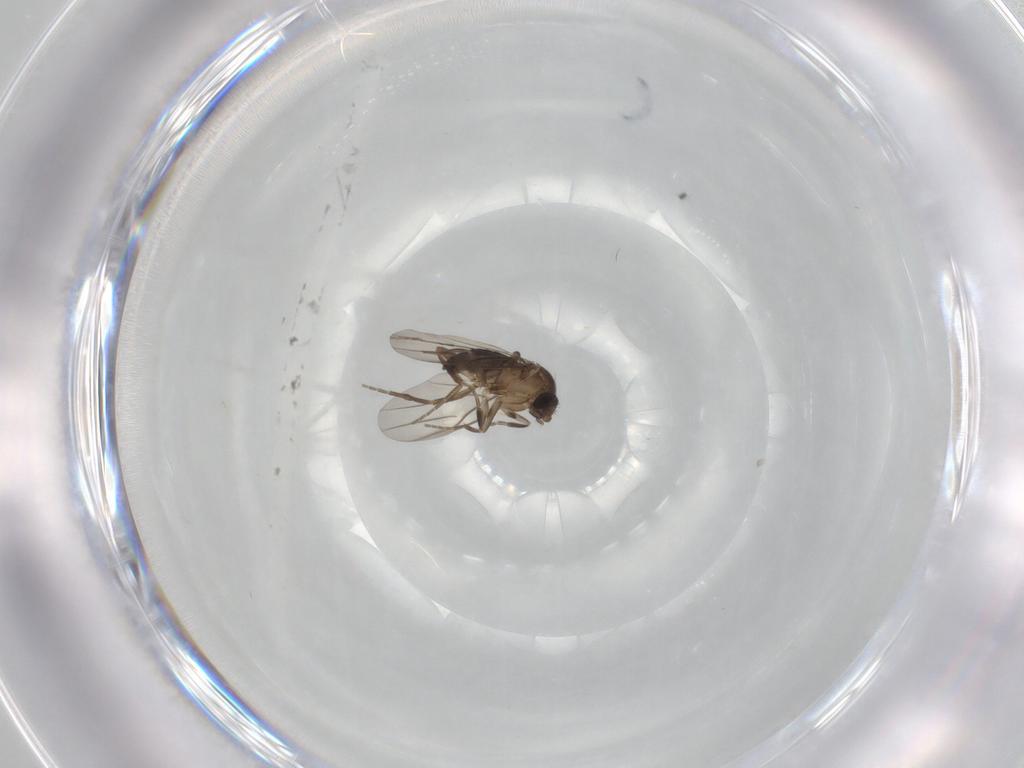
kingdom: Animalia
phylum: Arthropoda
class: Insecta
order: Diptera
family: Phoridae
